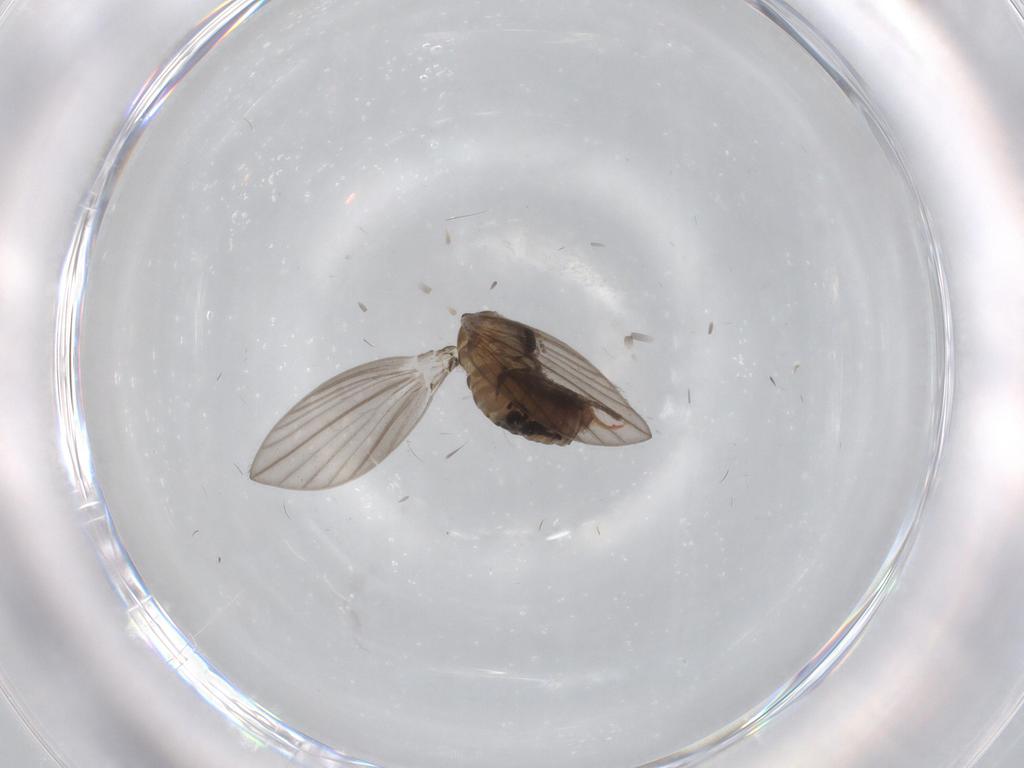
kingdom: Animalia
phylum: Arthropoda
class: Insecta
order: Diptera
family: Psychodidae
